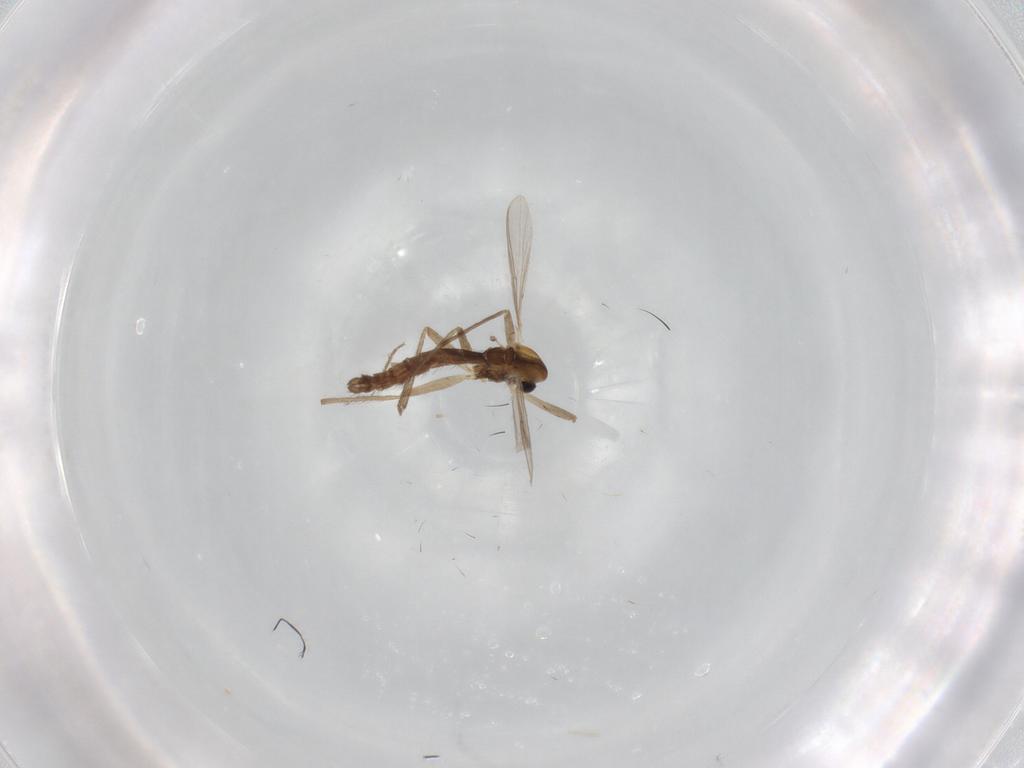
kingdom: Animalia
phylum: Arthropoda
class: Insecta
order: Diptera
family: Chironomidae
